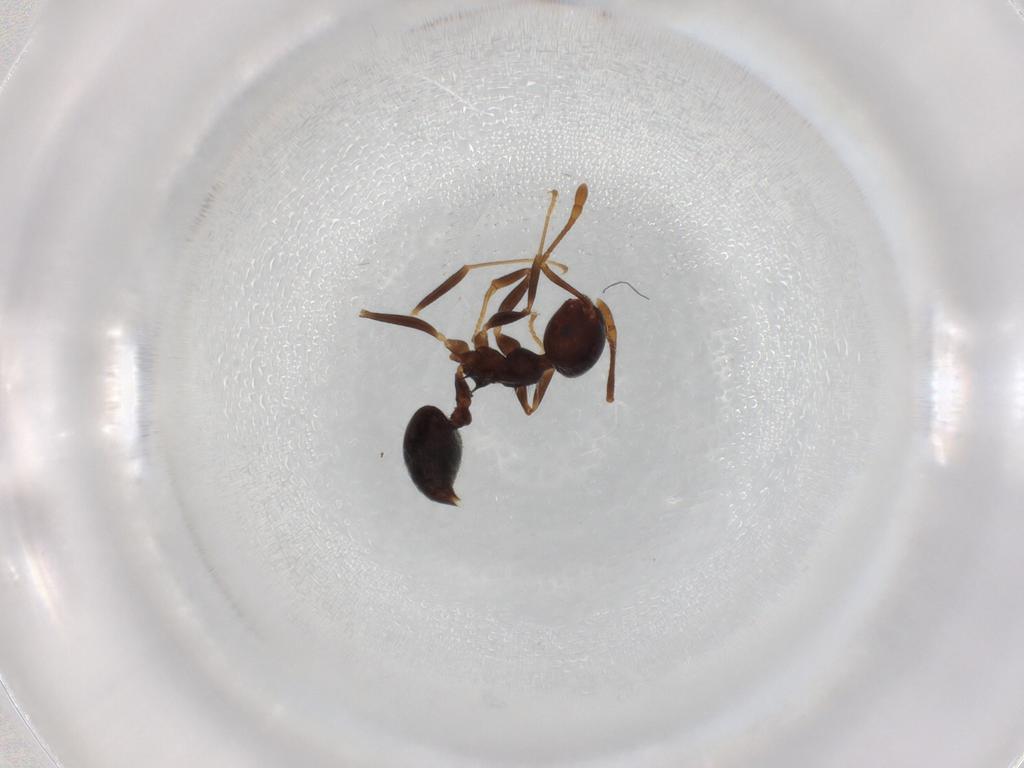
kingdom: Animalia
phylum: Arthropoda
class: Insecta
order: Hymenoptera
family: Formicidae
